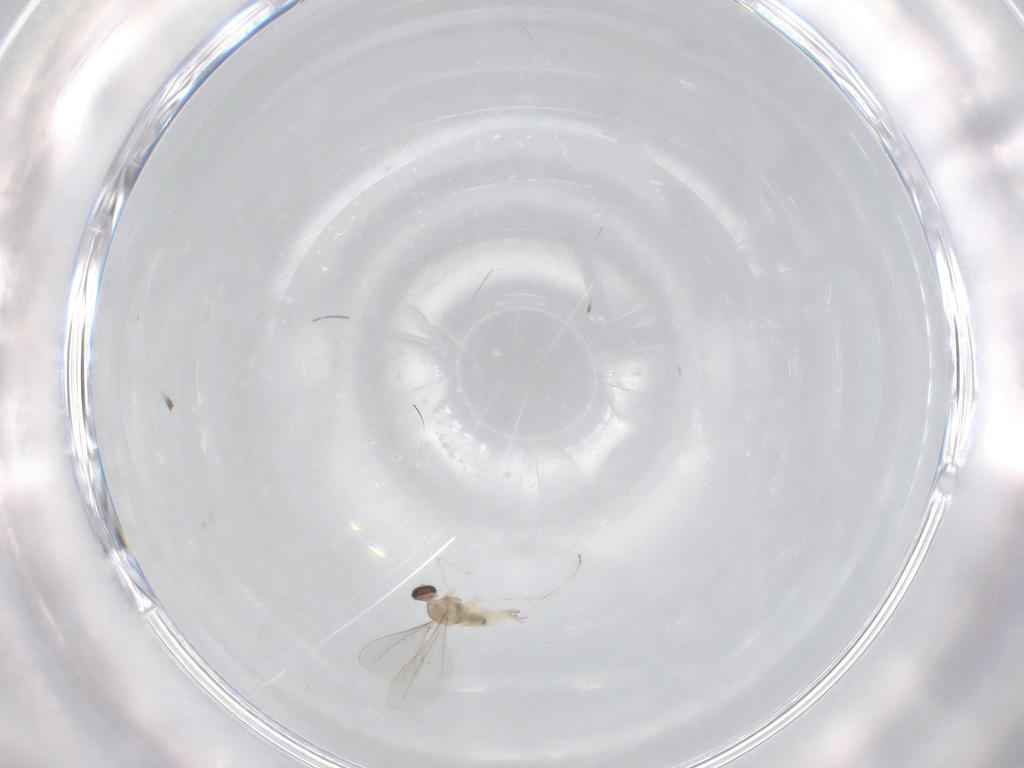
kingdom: Animalia
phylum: Arthropoda
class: Insecta
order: Diptera
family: Cecidomyiidae
